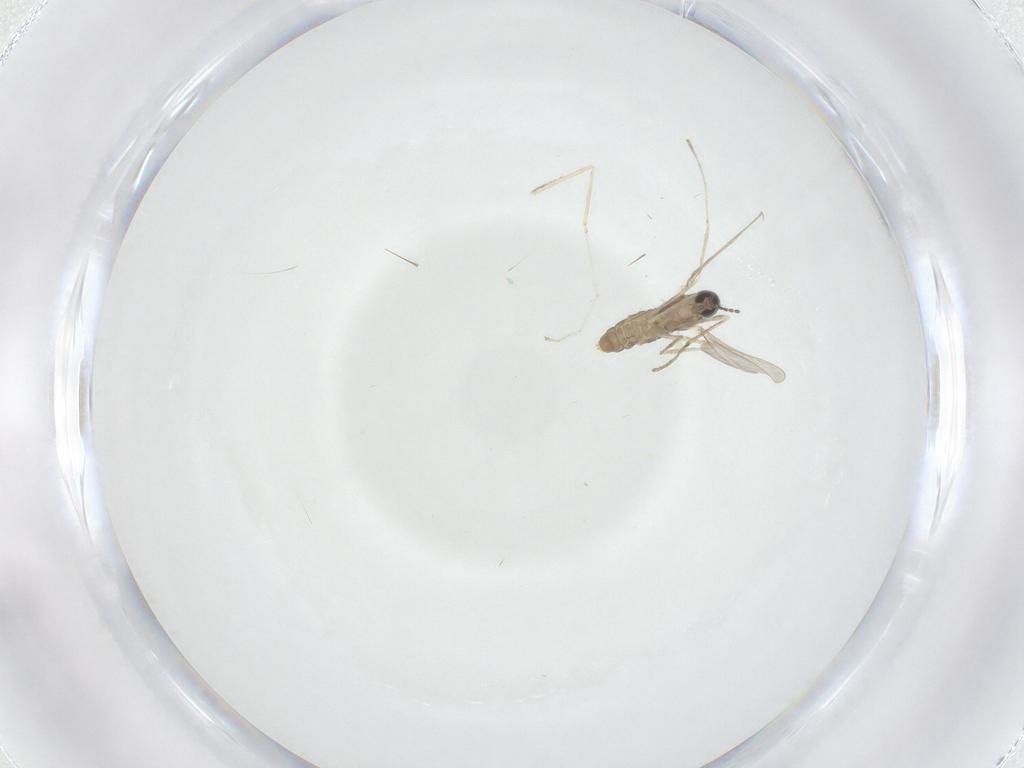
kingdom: Animalia
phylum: Arthropoda
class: Insecta
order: Diptera
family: Cecidomyiidae
